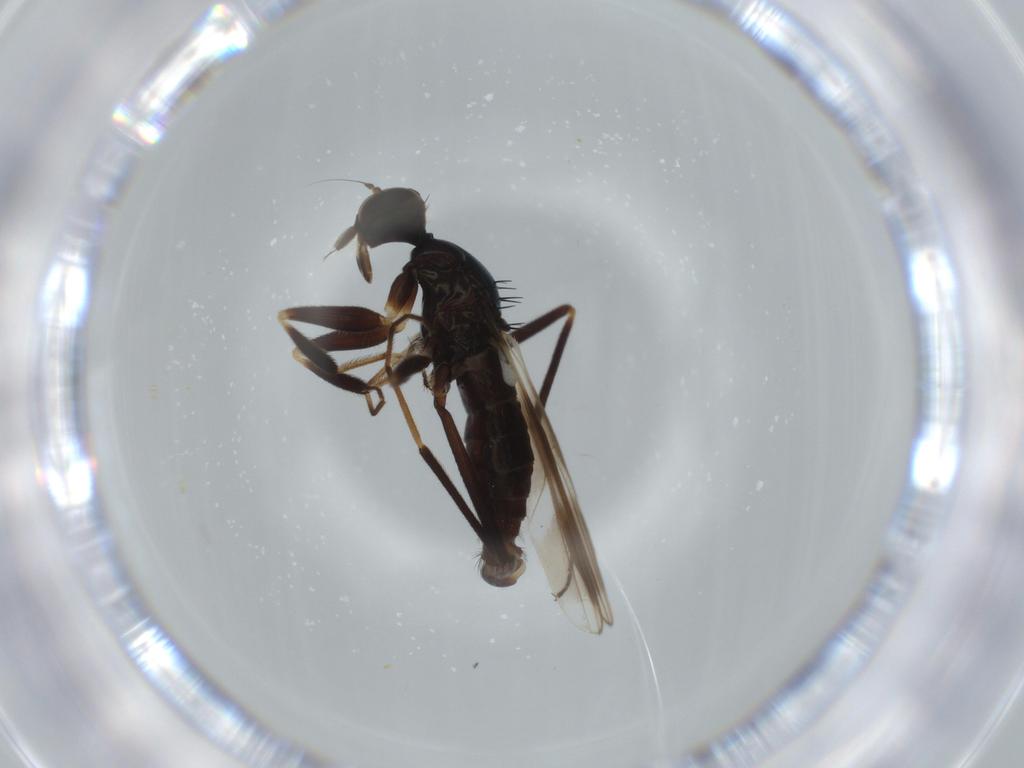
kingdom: Animalia
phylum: Arthropoda
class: Insecta
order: Diptera
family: Hybotidae
